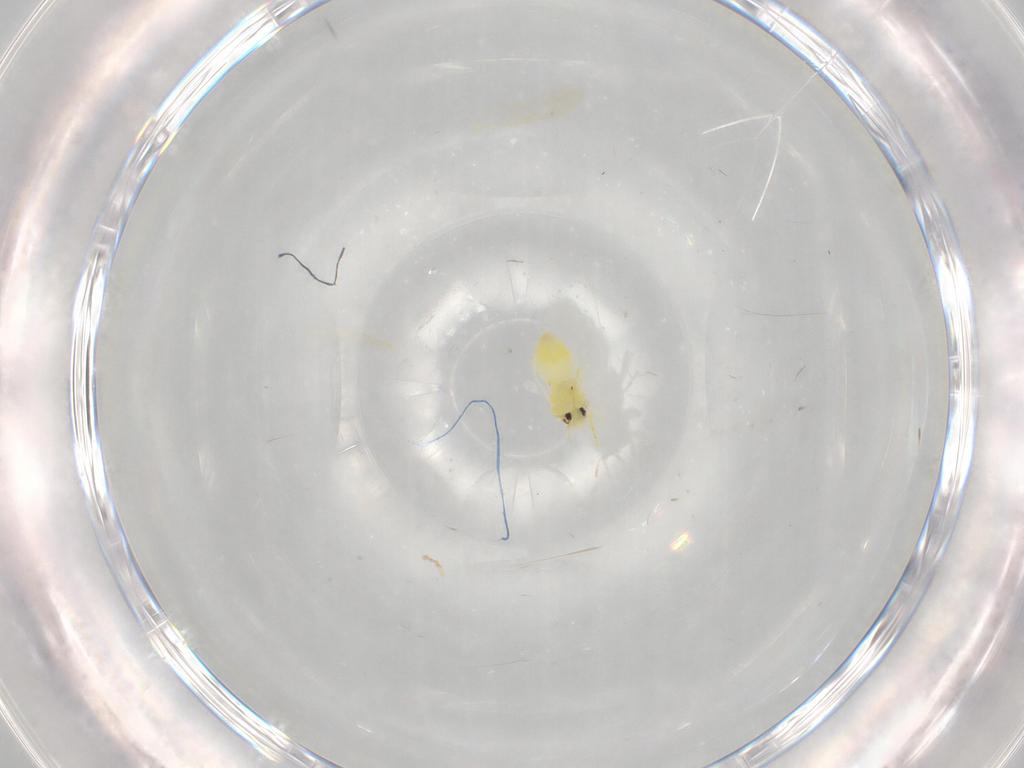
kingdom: Animalia
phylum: Arthropoda
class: Insecta
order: Hemiptera
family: Aleyrodidae
